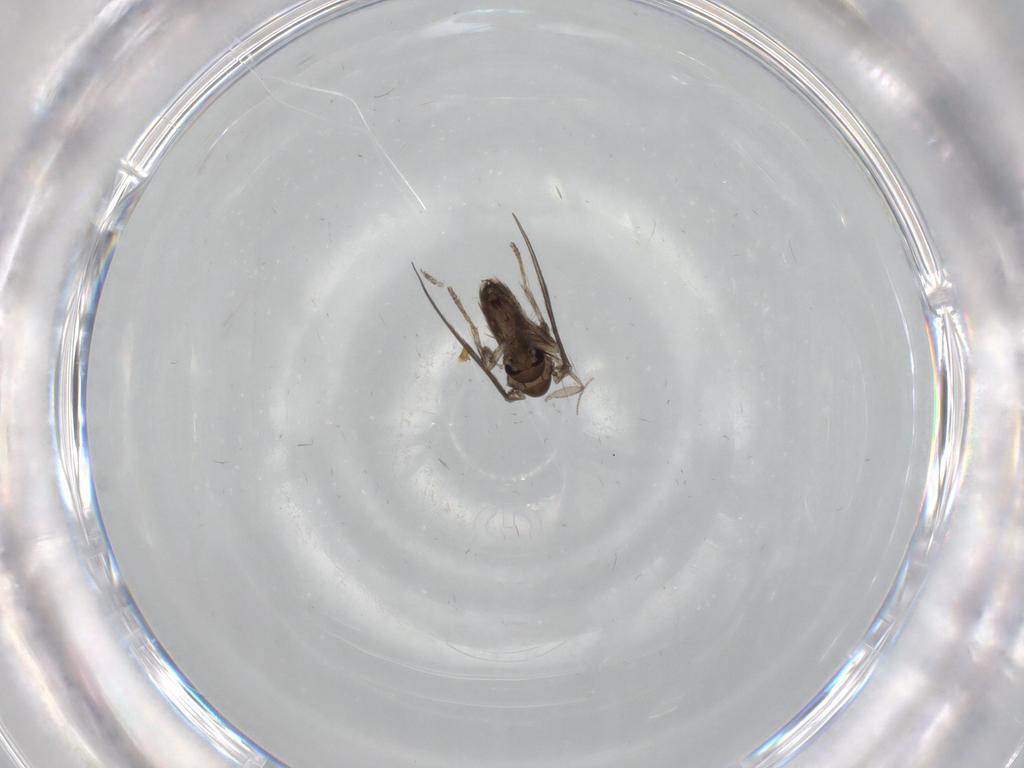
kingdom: Animalia
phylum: Arthropoda
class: Insecta
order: Diptera
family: Psychodidae
